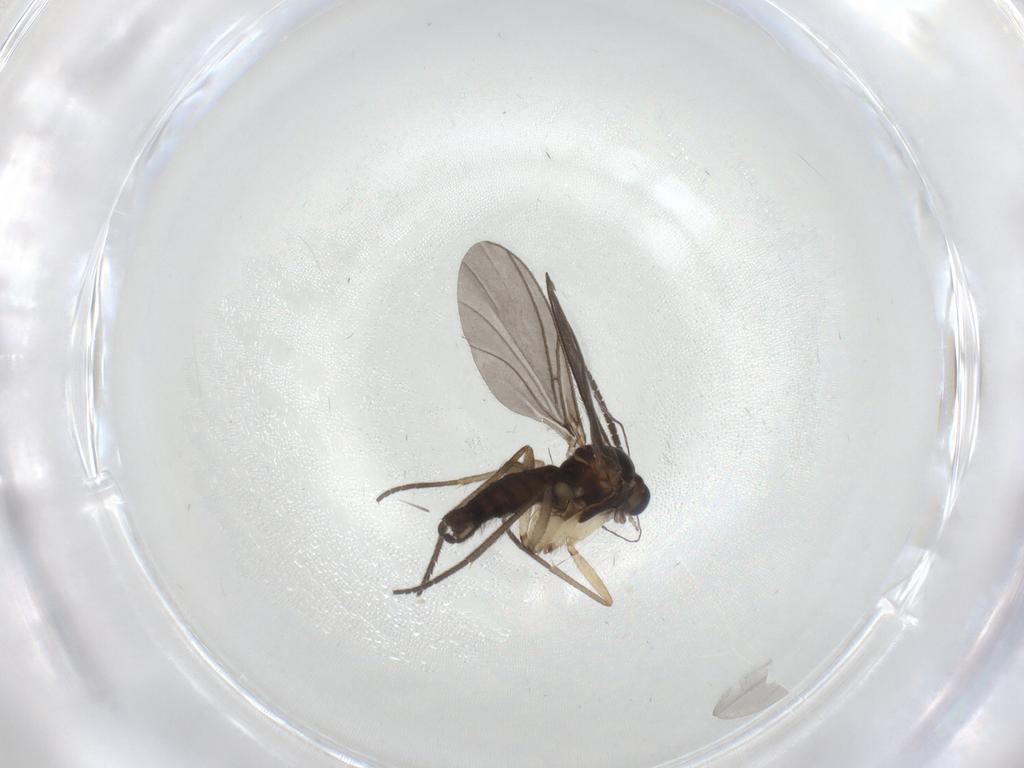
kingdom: Animalia
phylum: Arthropoda
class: Insecta
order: Diptera
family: Sciaridae
